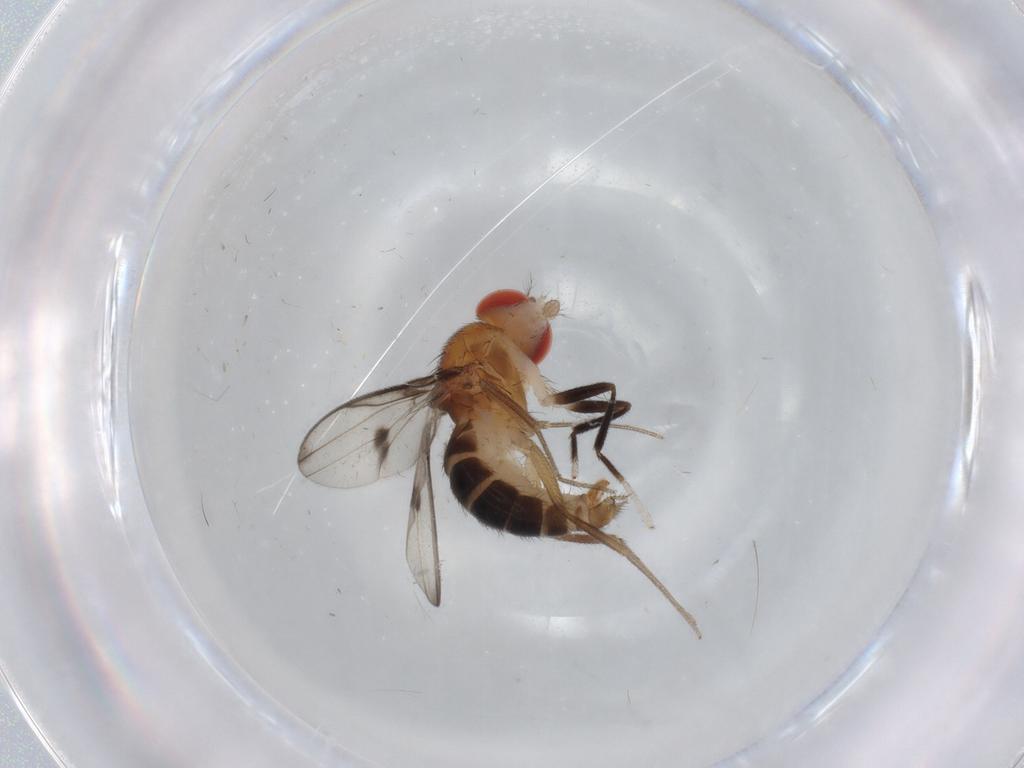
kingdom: Animalia
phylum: Arthropoda
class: Insecta
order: Diptera
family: Drosophilidae
